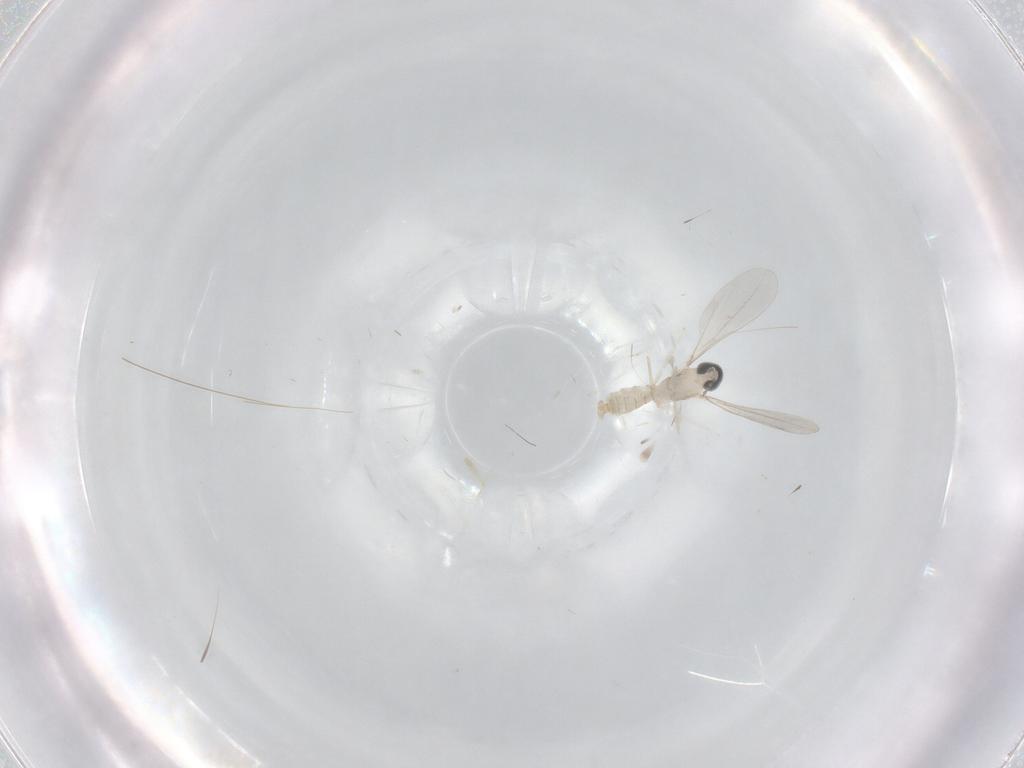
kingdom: Animalia
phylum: Arthropoda
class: Insecta
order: Diptera
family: Cecidomyiidae
